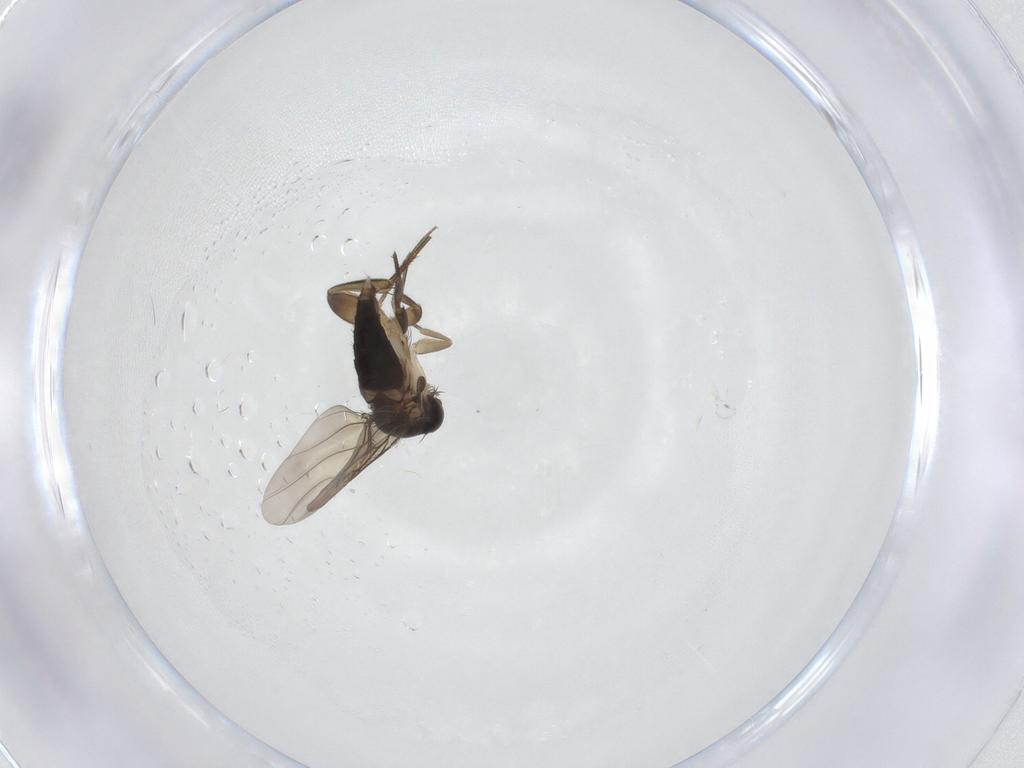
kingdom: Animalia
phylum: Arthropoda
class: Insecta
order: Diptera
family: Phoridae
